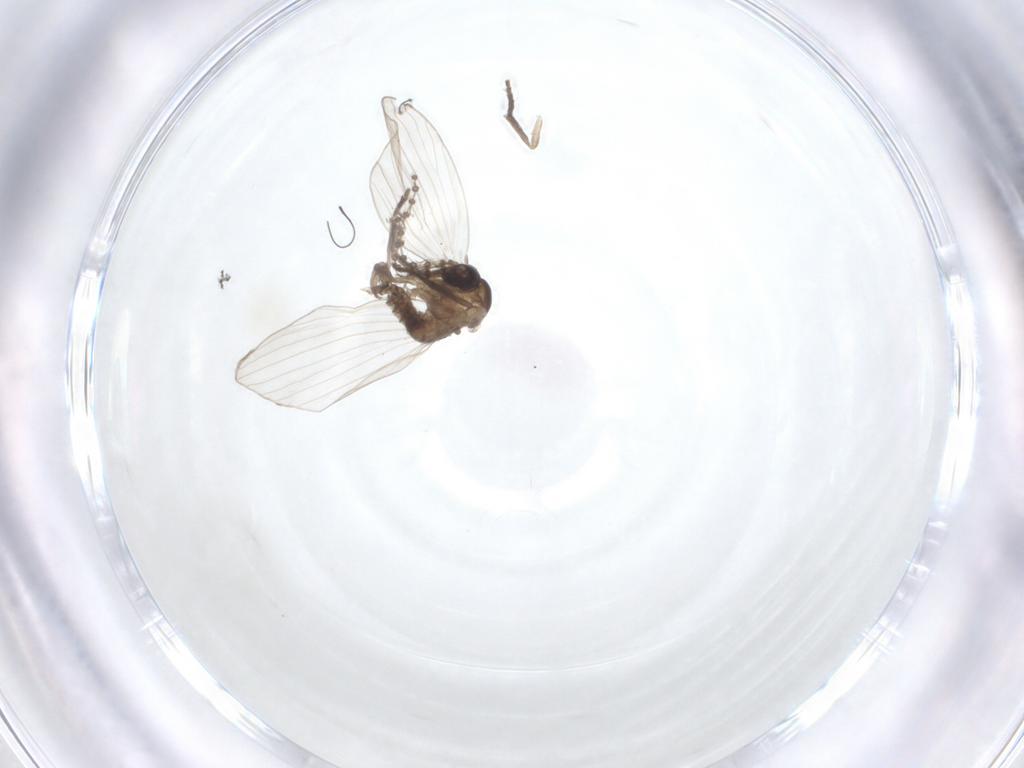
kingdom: Animalia
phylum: Arthropoda
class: Insecta
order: Diptera
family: Psychodidae
